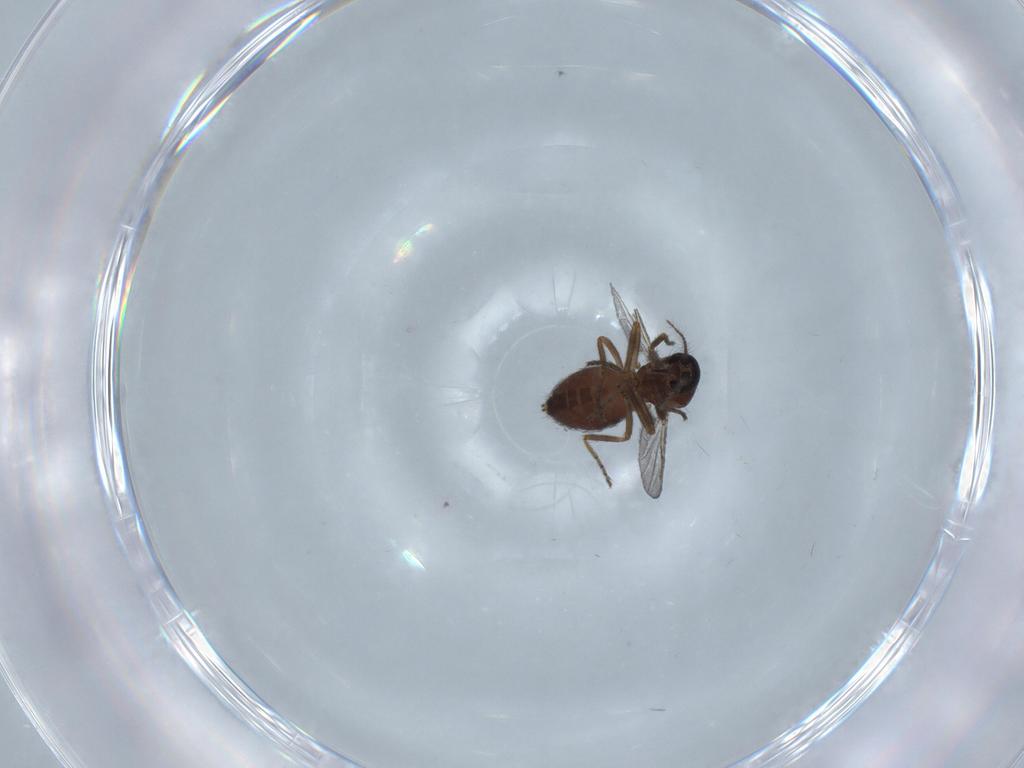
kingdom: Animalia
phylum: Arthropoda
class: Insecta
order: Diptera
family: Ceratopogonidae
